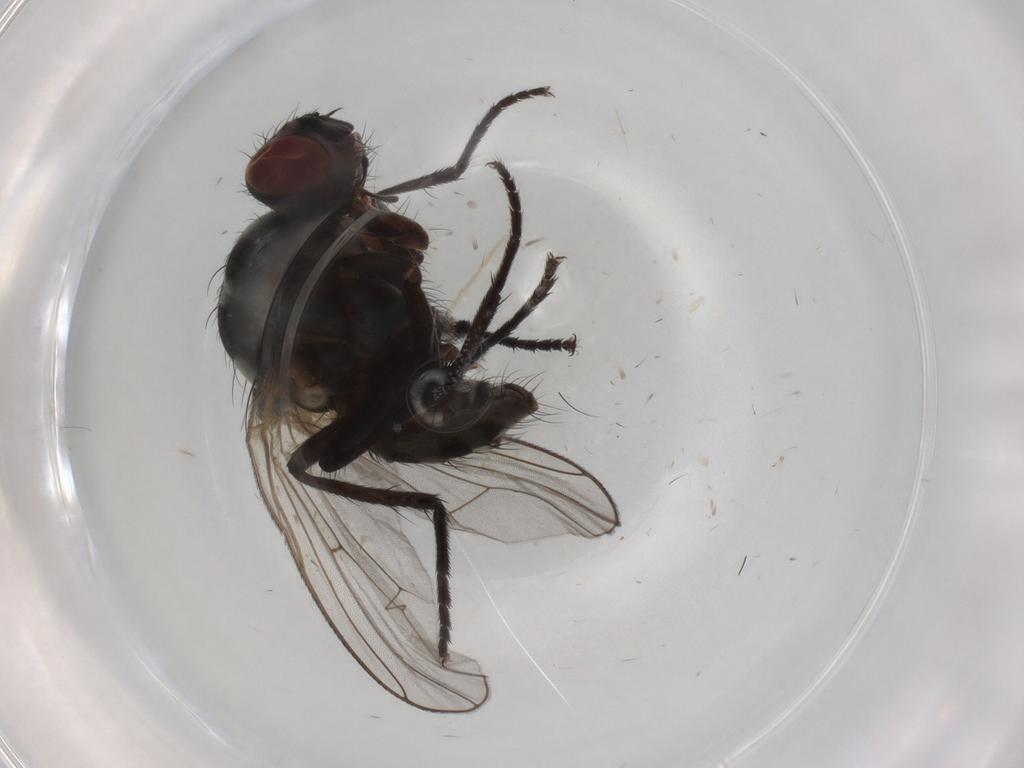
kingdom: Animalia
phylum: Arthropoda
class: Insecta
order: Diptera
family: Anthomyiidae
